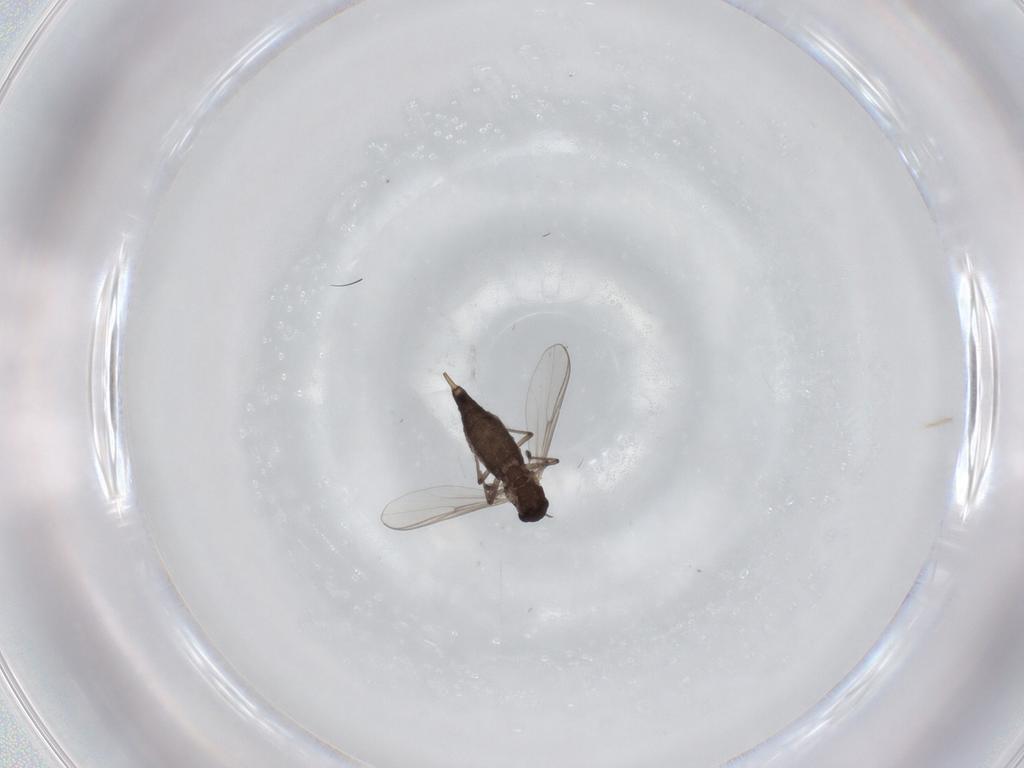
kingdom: Animalia
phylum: Arthropoda
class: Insecta
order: Diptera
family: Chironomidae
